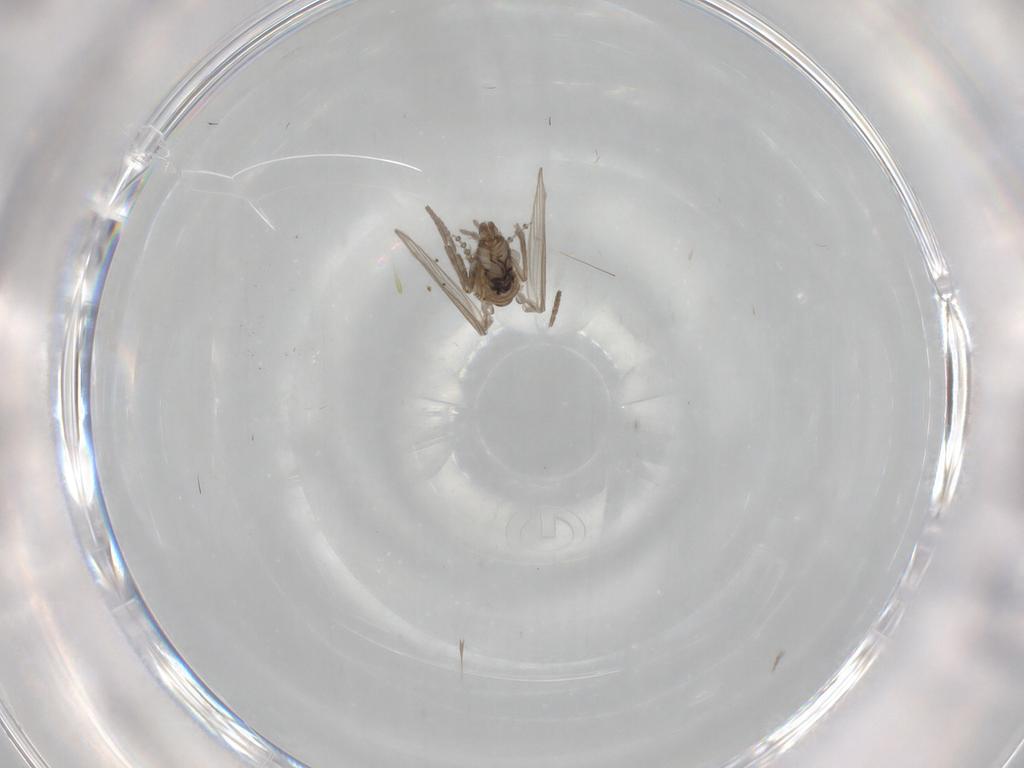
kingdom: Animalia
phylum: Arthropoda
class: Insecta
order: Diptera
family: Psychodidae
